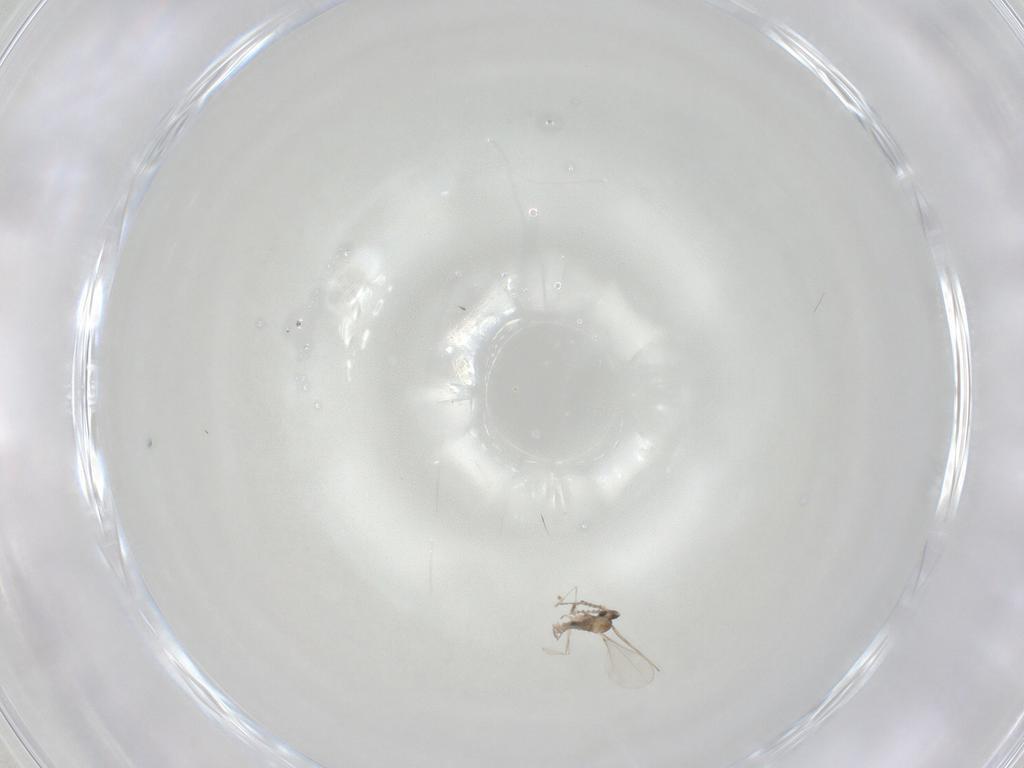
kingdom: Animalia
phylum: Arthropoda
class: Insecta
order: Diptera
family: Cecidomyiidae
